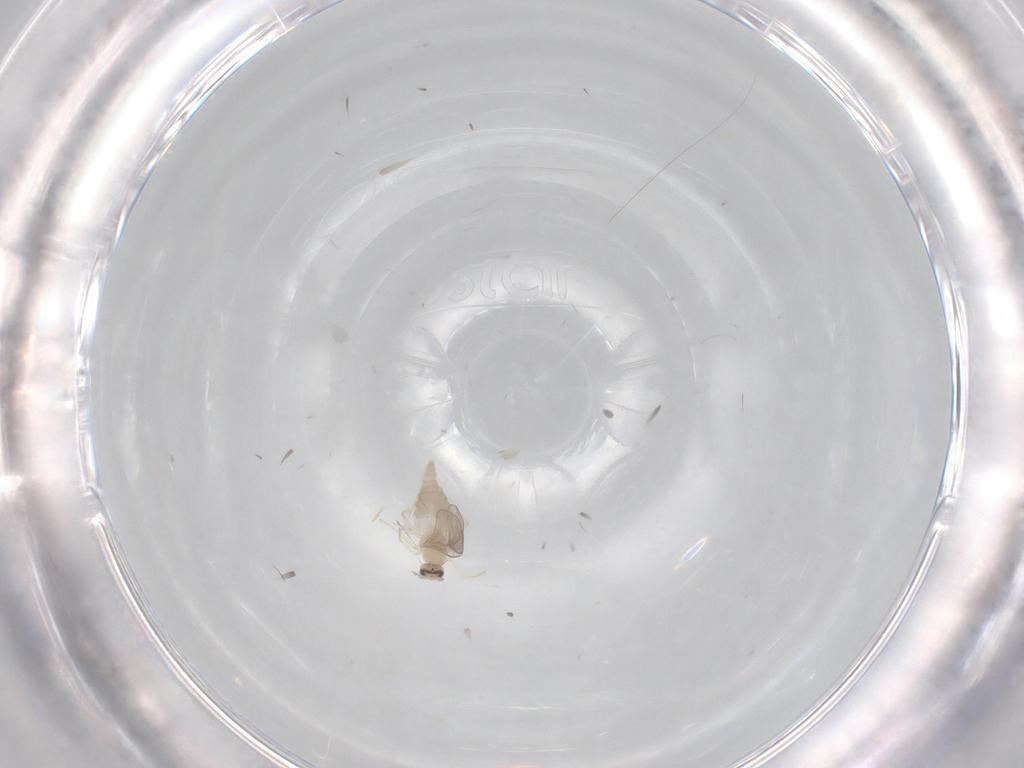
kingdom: Animalia
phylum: Arthropoda
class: Insecta
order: Diptera
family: Cecidomyiidae
